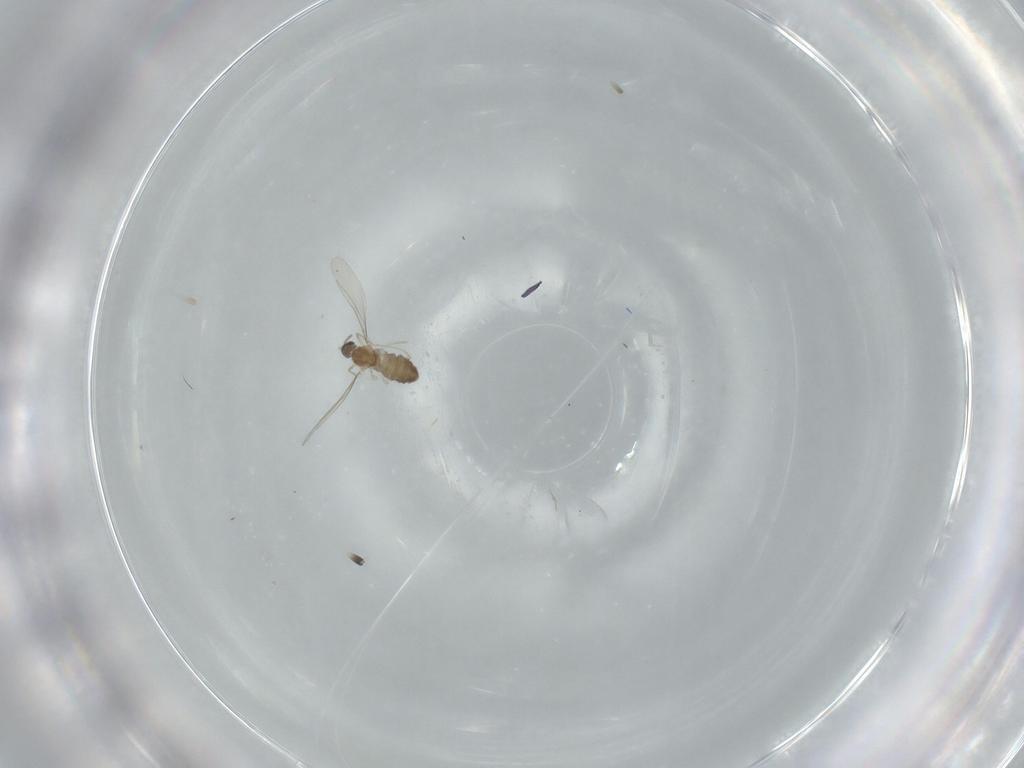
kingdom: Animalia
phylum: Arthropoda
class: Insecta
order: Diptera
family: Cecidomyiidae
